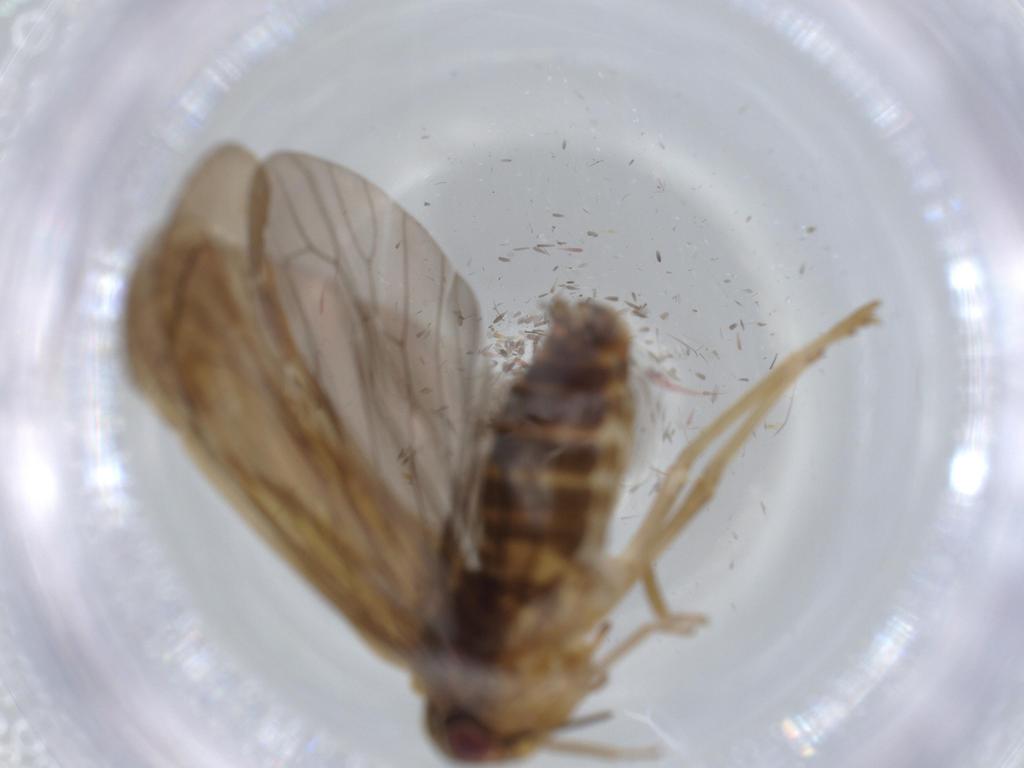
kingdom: Animalia
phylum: Arthropoda
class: Insecta
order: Hemiptera
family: Achilidae
